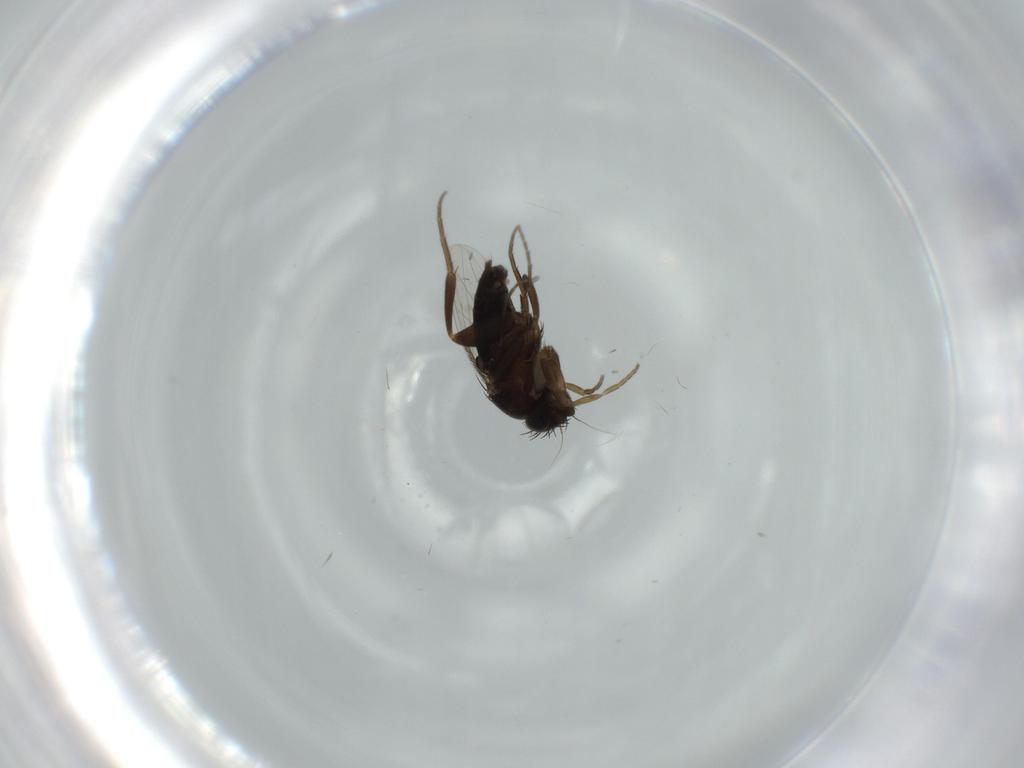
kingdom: Animalia
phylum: Arthropoda
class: Insecta
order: Diptera
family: Phoridae
